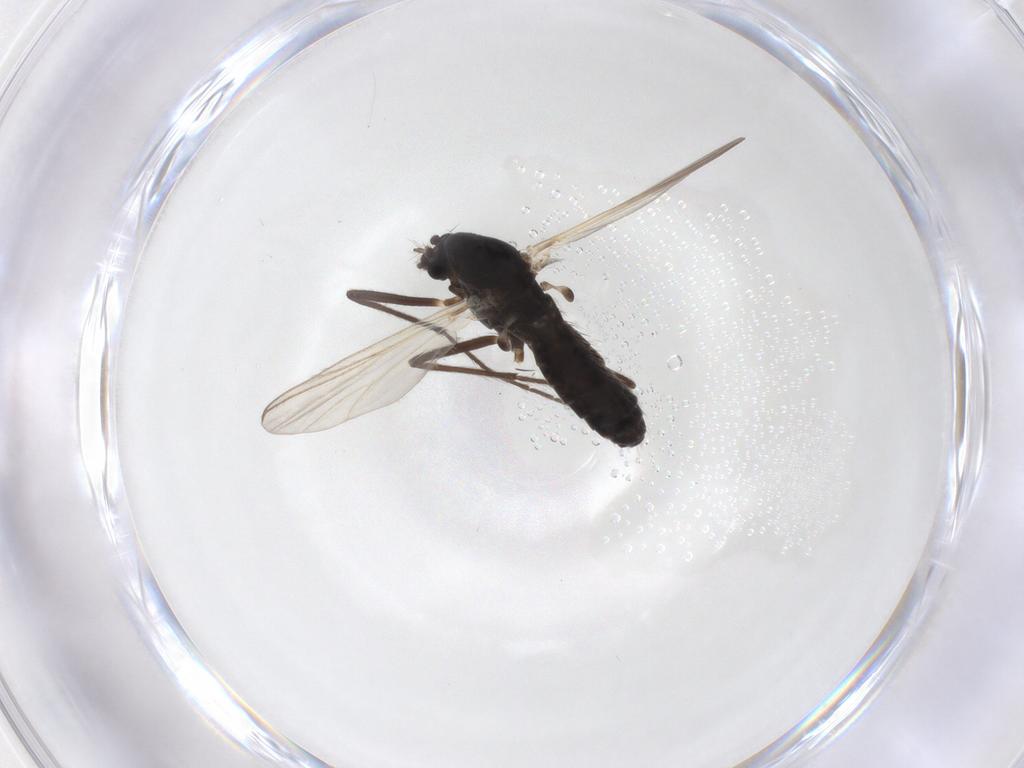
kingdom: Animalia
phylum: Arthropoda
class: Insecta
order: Diptera
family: Chironomidae
